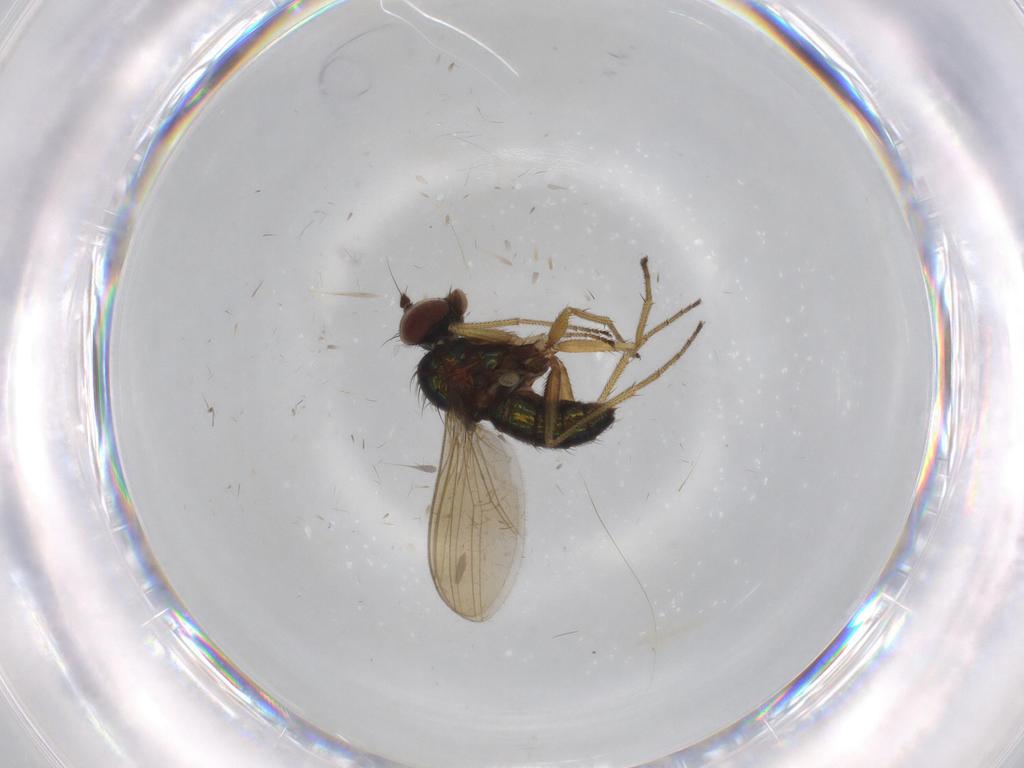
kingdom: Animalia
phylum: Arthropoda
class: Insecta
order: Diptera
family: Dolichopodidae
